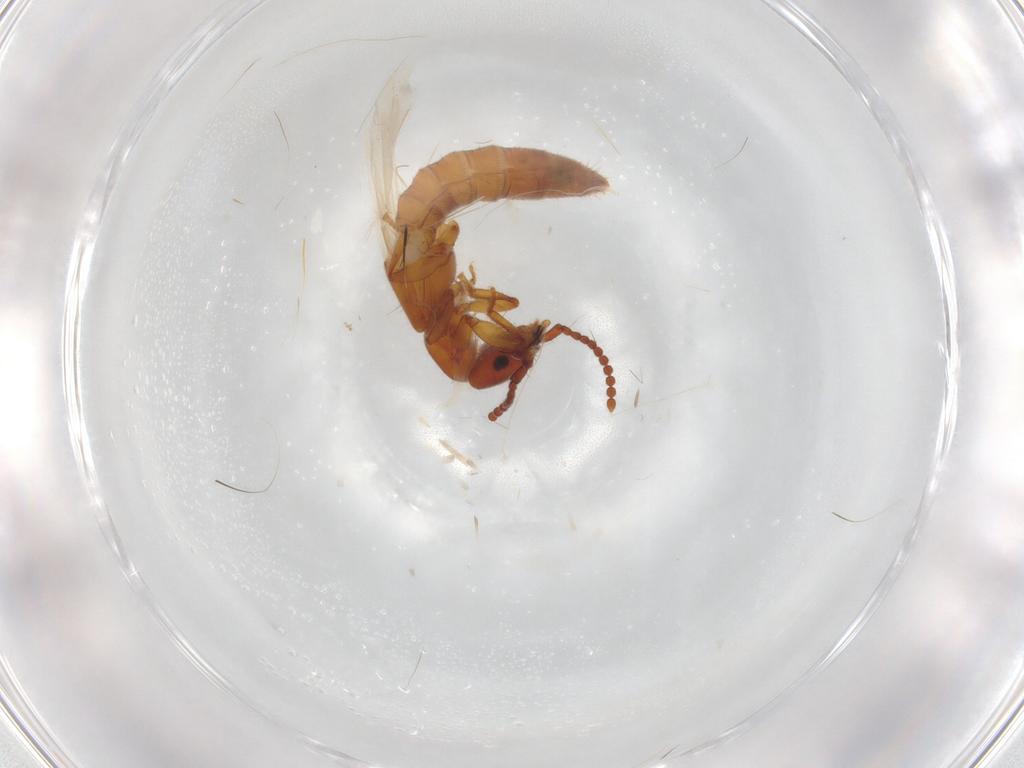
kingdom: Animalia
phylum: Arthropoda
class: Insecta
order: Coleoptera
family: Staphylinidae
